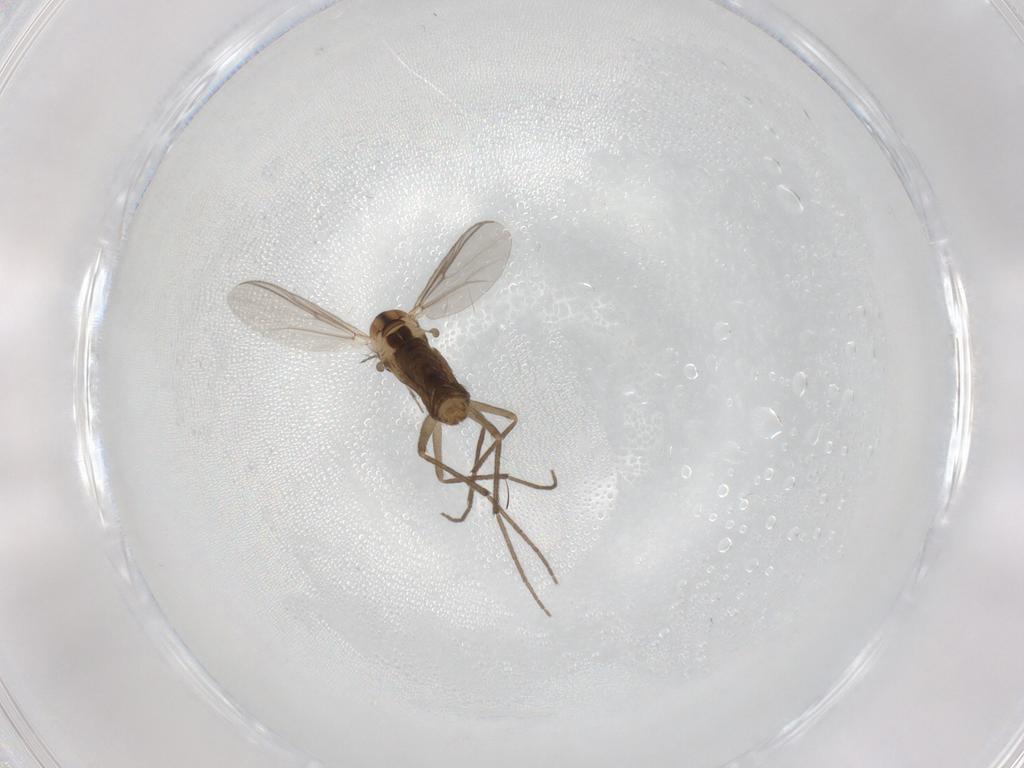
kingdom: Animalia
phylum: Arthropoda
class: Insecta
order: Diptera
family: Chironomidae
